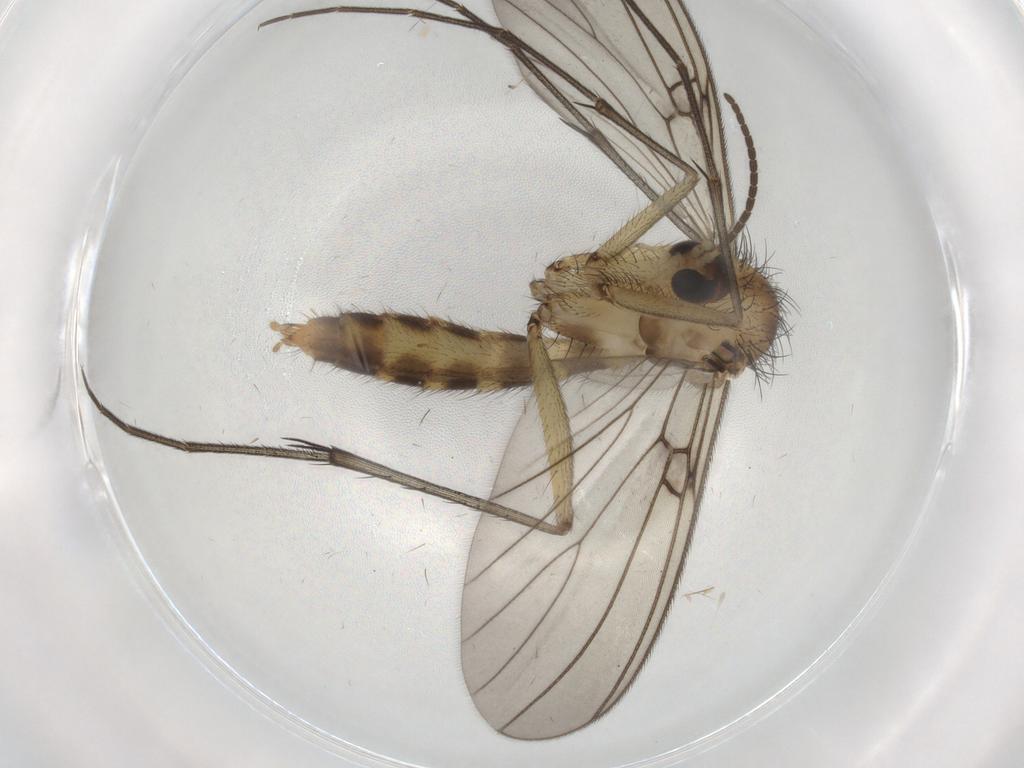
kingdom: Animalia
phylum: Arthropoda
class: Insecta
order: Diptera
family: Mycetophilidae
